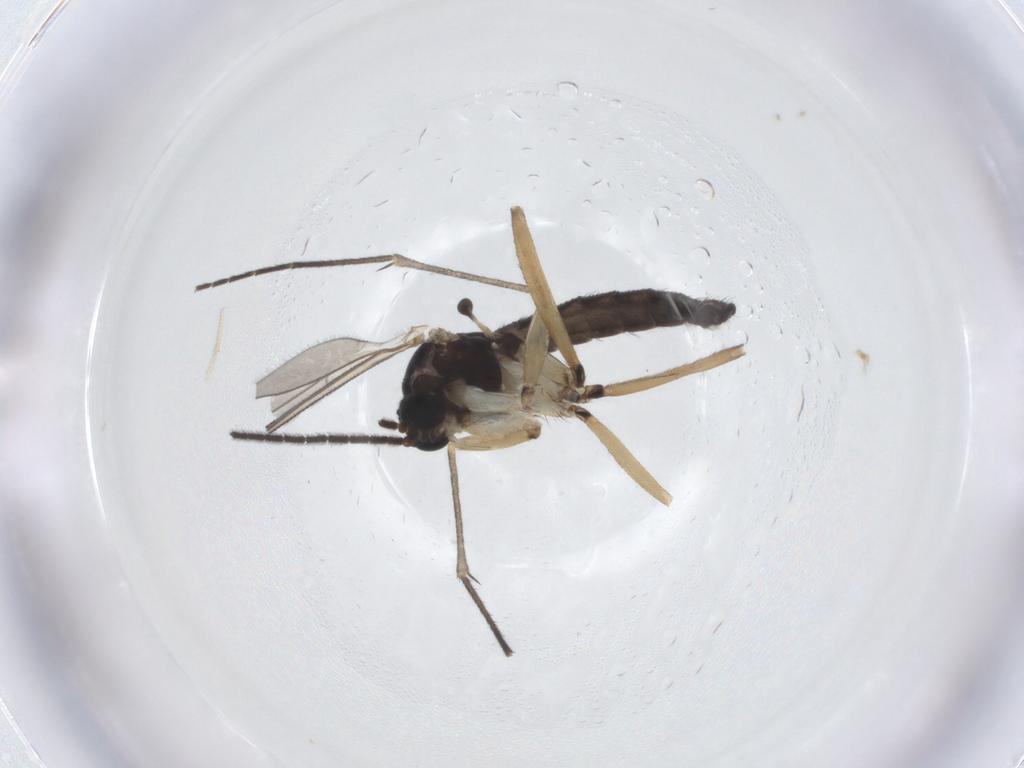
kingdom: Animalia
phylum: Arthropoda
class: Insecta
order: Diptera
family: Sciaridae
